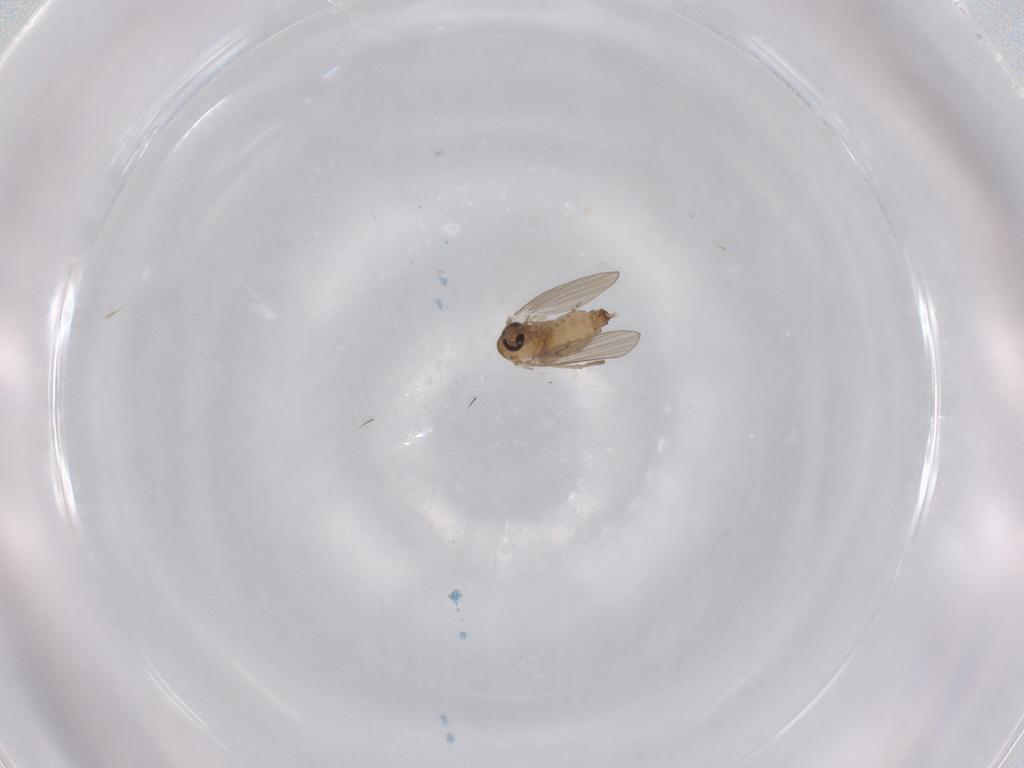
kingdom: Animalia
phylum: Arthropoda
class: Insecta
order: Diptera
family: Psychodidae
